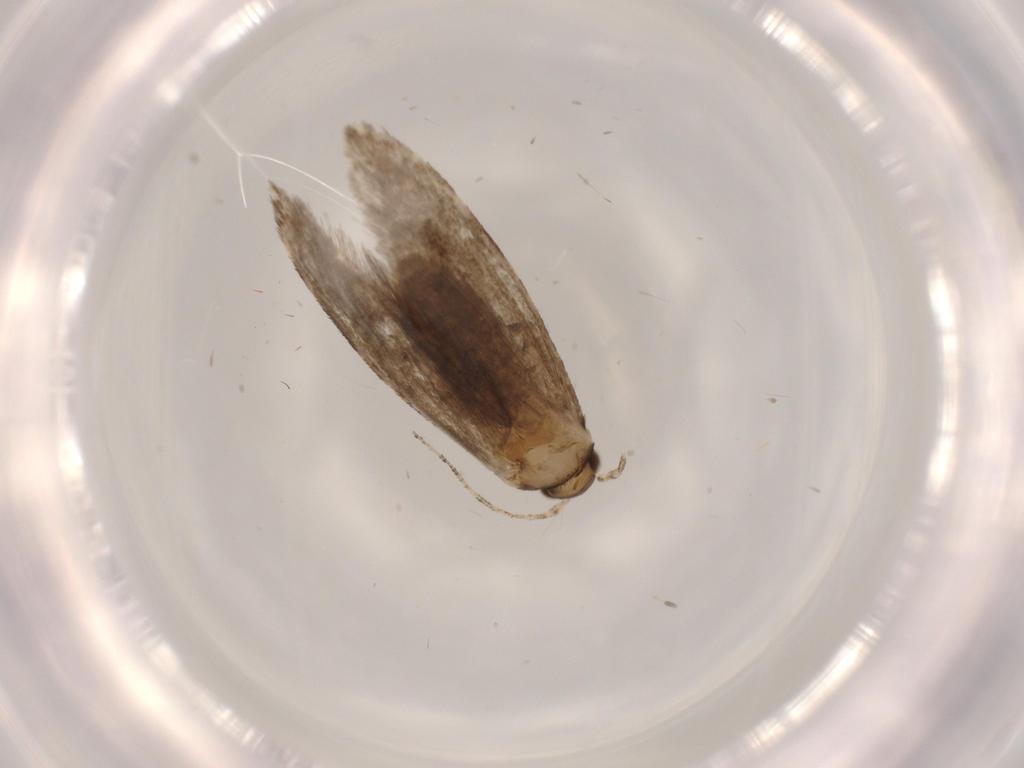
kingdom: Animalia
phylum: Arthropoda
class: Insecta
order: Lepidoptera
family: Tineidae
